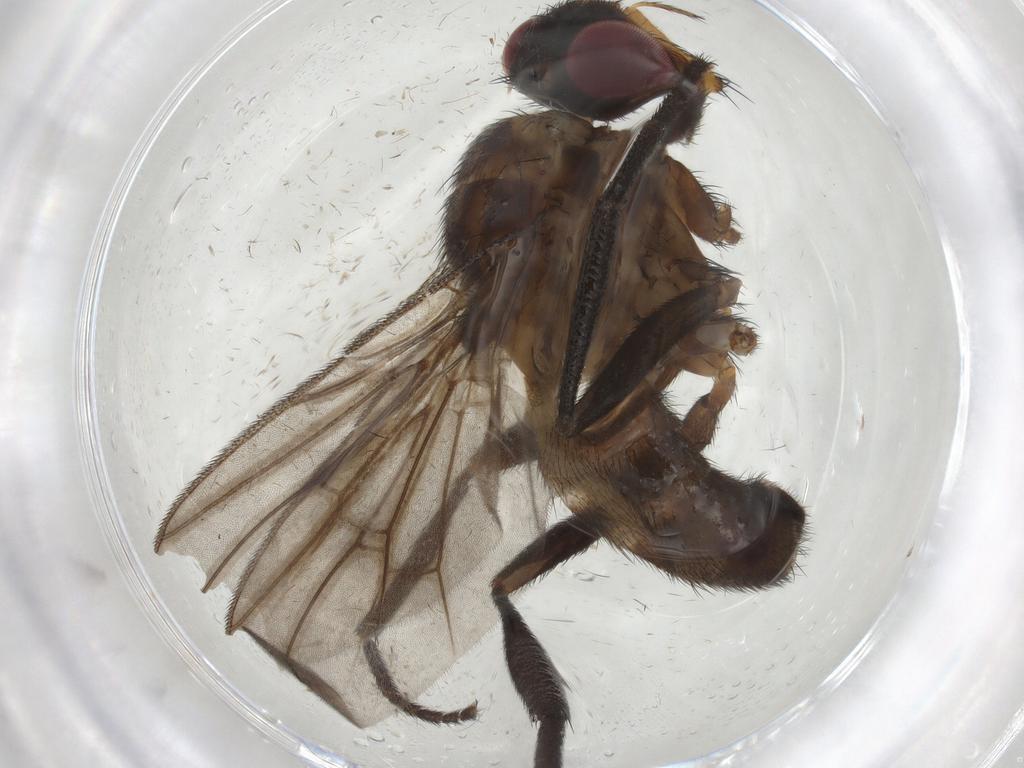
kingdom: Animalia
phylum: Arthropoda
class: Insecta
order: Diptera
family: Calliphoridae
